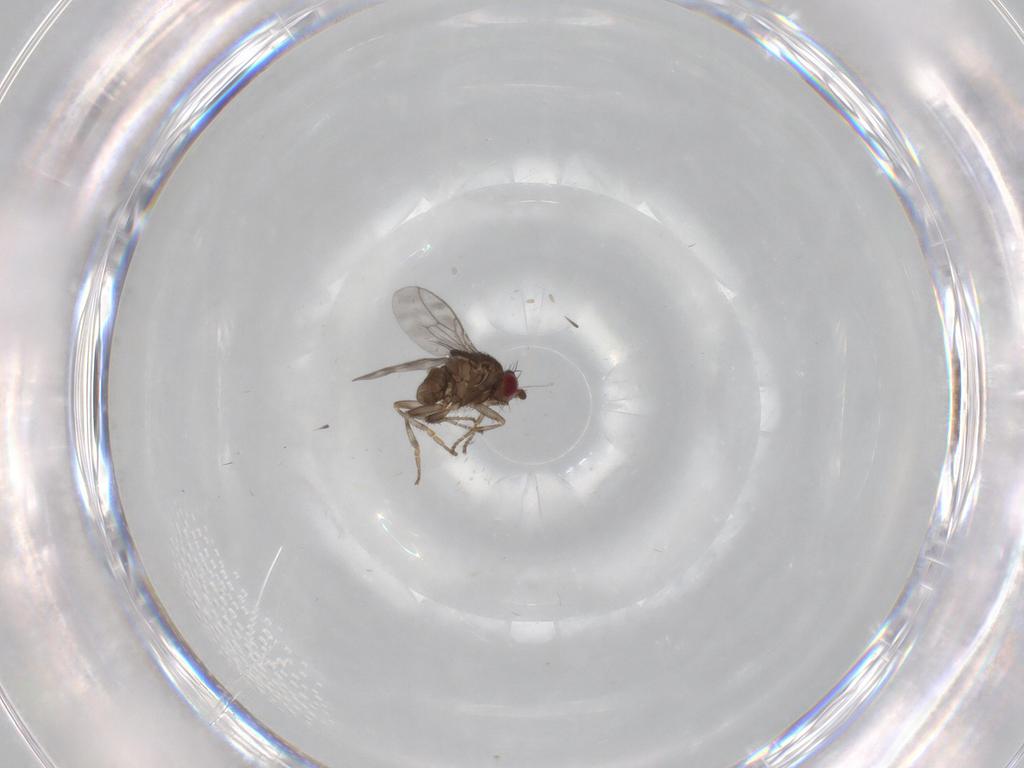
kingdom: Animalia
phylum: Arthropoda
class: Insecta
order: Diptera
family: Sphaeroceridae
